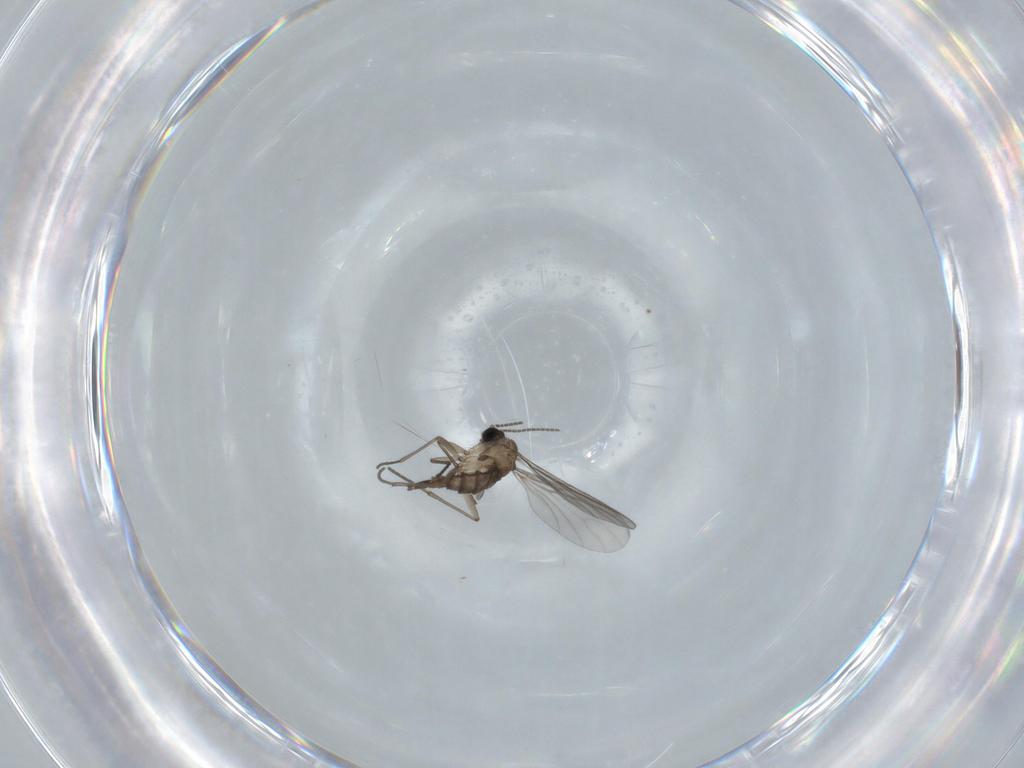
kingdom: Animalia
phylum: Arthropoda
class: Insecta
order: Diptera
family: Sciaridae
